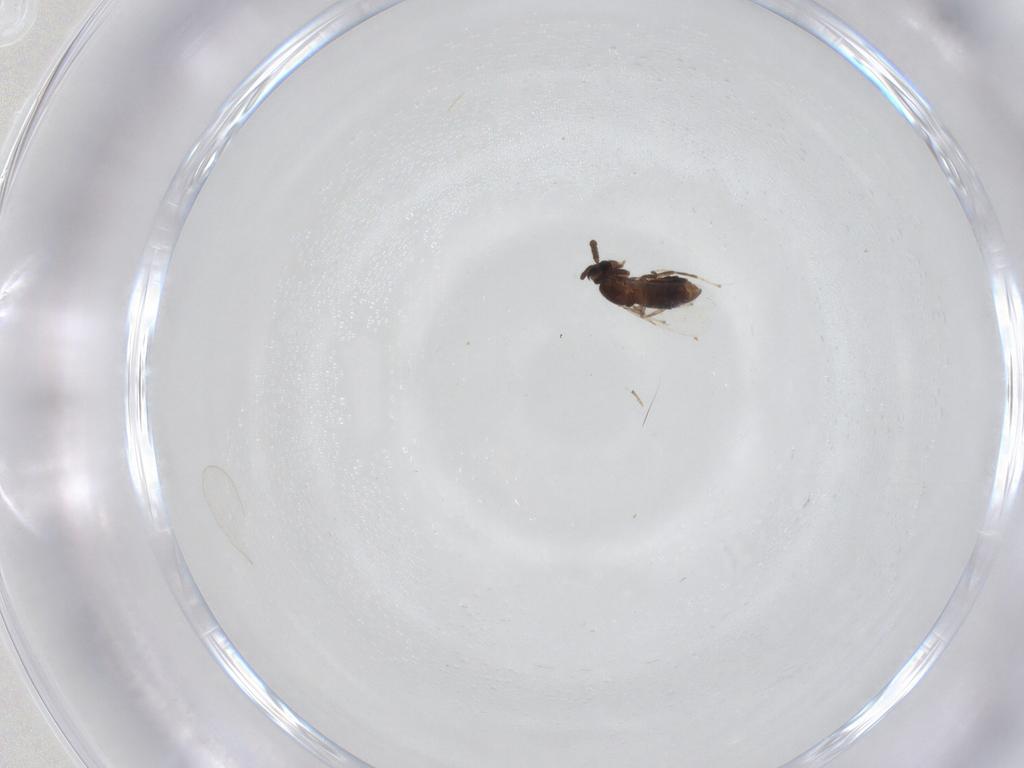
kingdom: Animalia
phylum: Arthropoda
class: Insecta
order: Diptera
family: Scatopsidae
